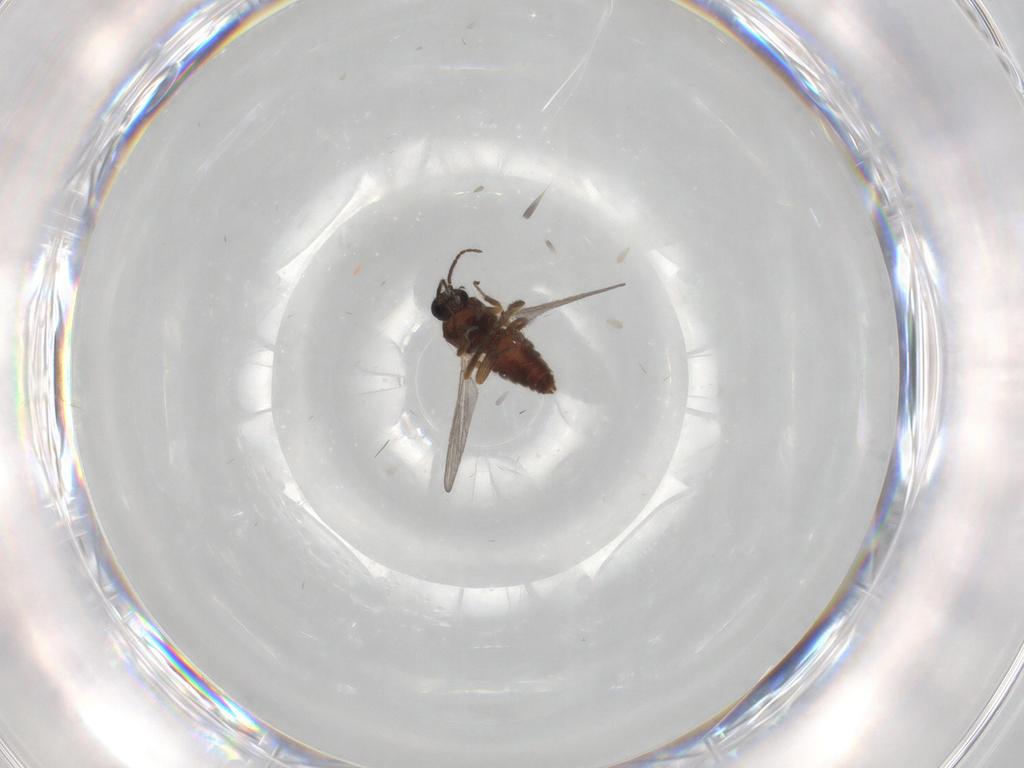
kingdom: Animalia
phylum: Arthropoda
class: Insecta
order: Diptera
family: Ceratopogonidae
